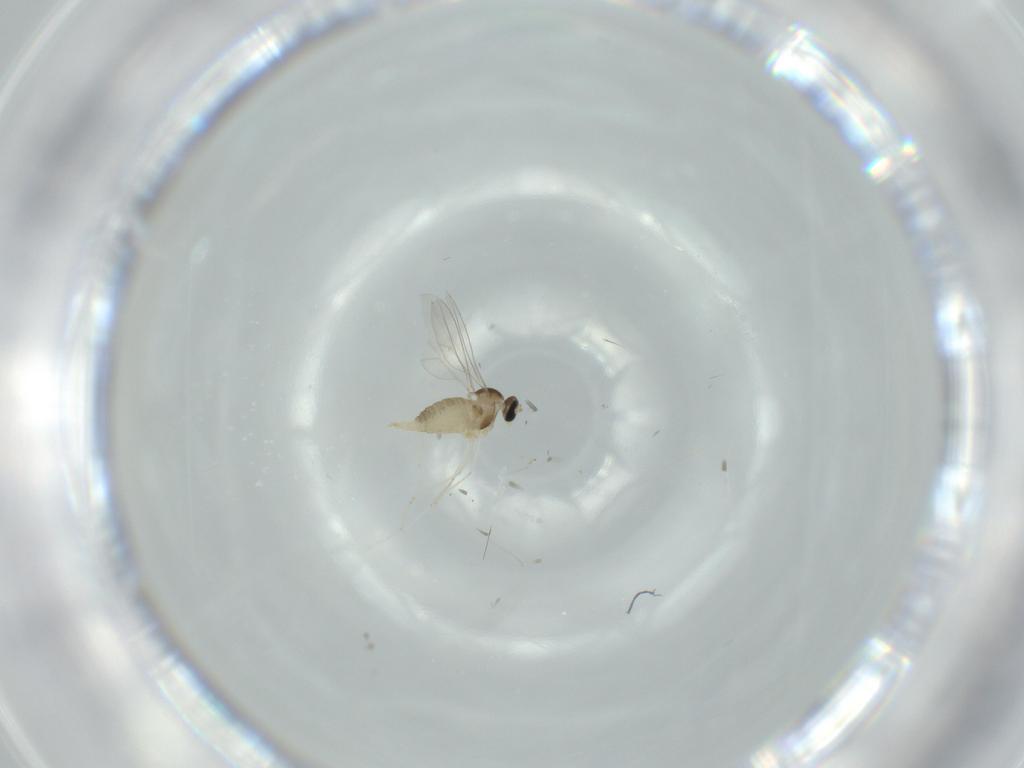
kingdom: Animalia
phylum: Arthropoda
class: Insecta
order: Diptera
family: Cecidomyiidae
